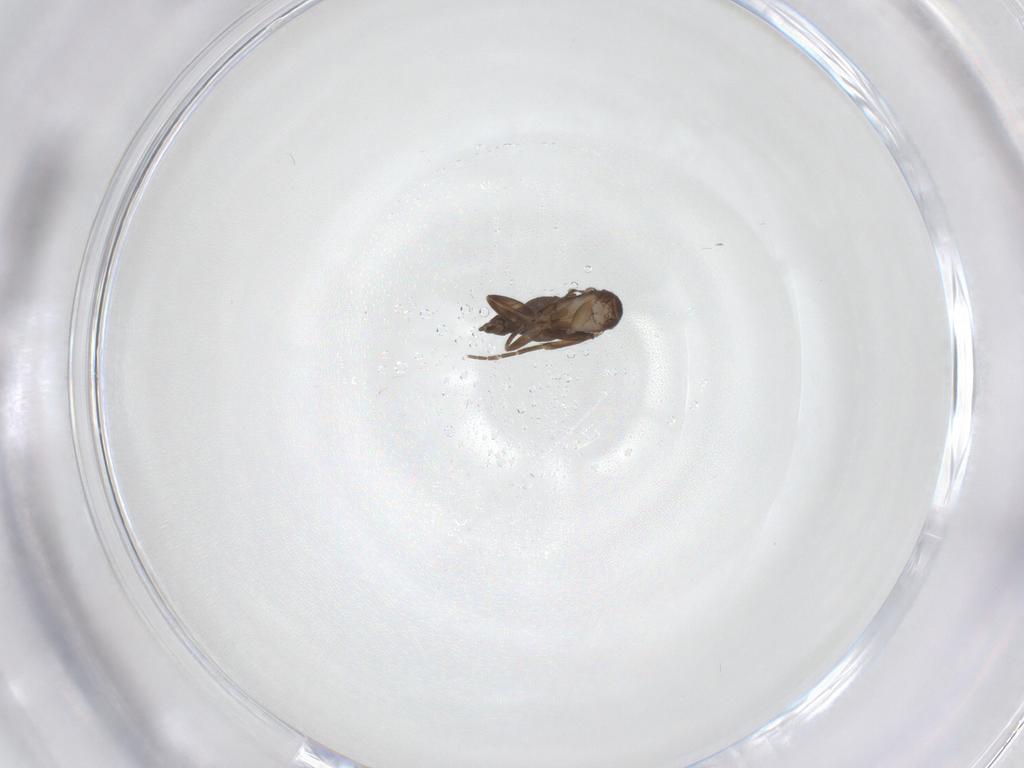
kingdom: Animalia
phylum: Arthropoda
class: Insecta
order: Diptera
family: Phoridae
